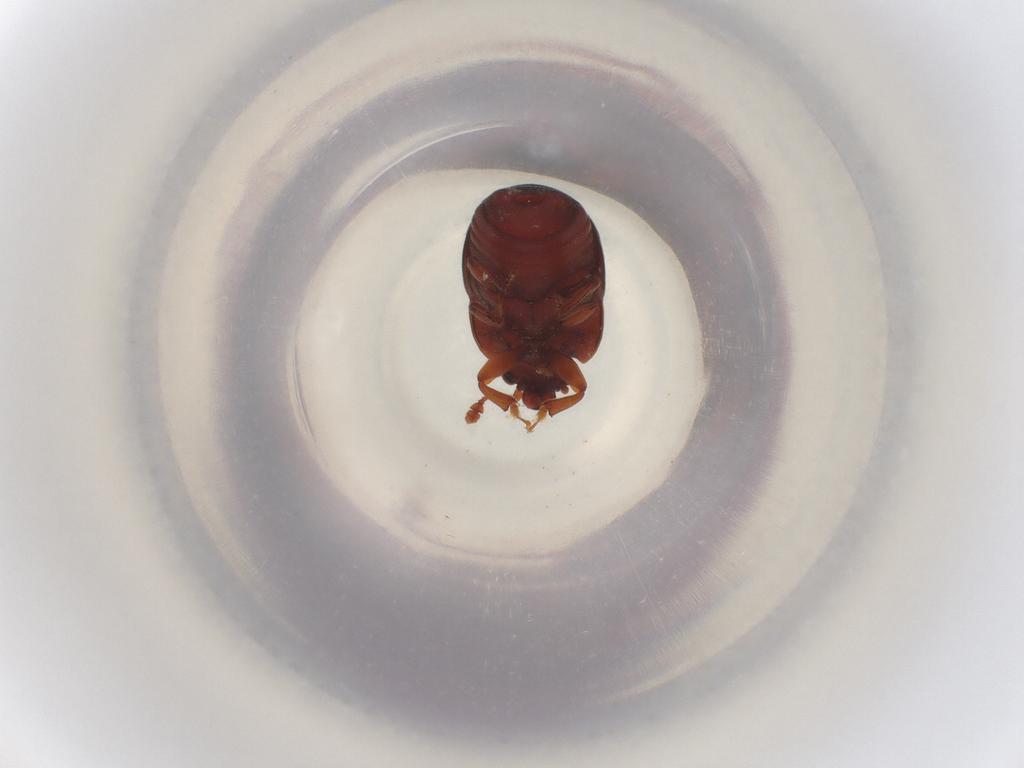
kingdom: Animalia
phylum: Arthropoda
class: Insecta
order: Coleoptera
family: Nitidulidae
